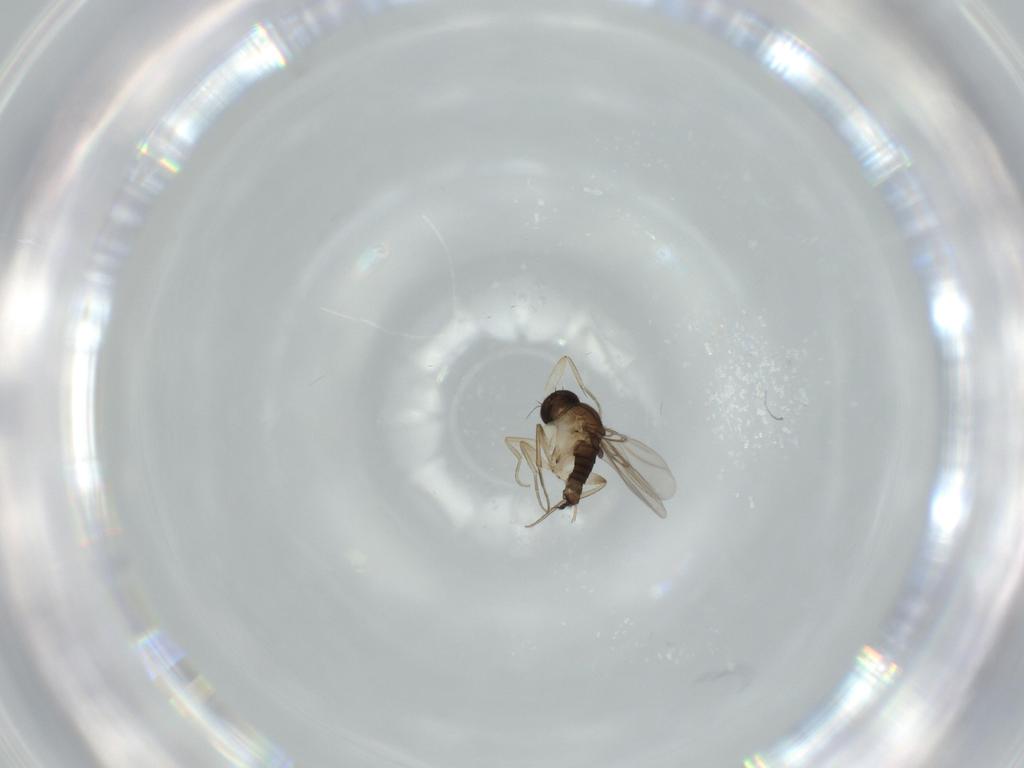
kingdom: Animalia
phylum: Arthropoda
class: Insecta
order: Diptera
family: Phoridae
